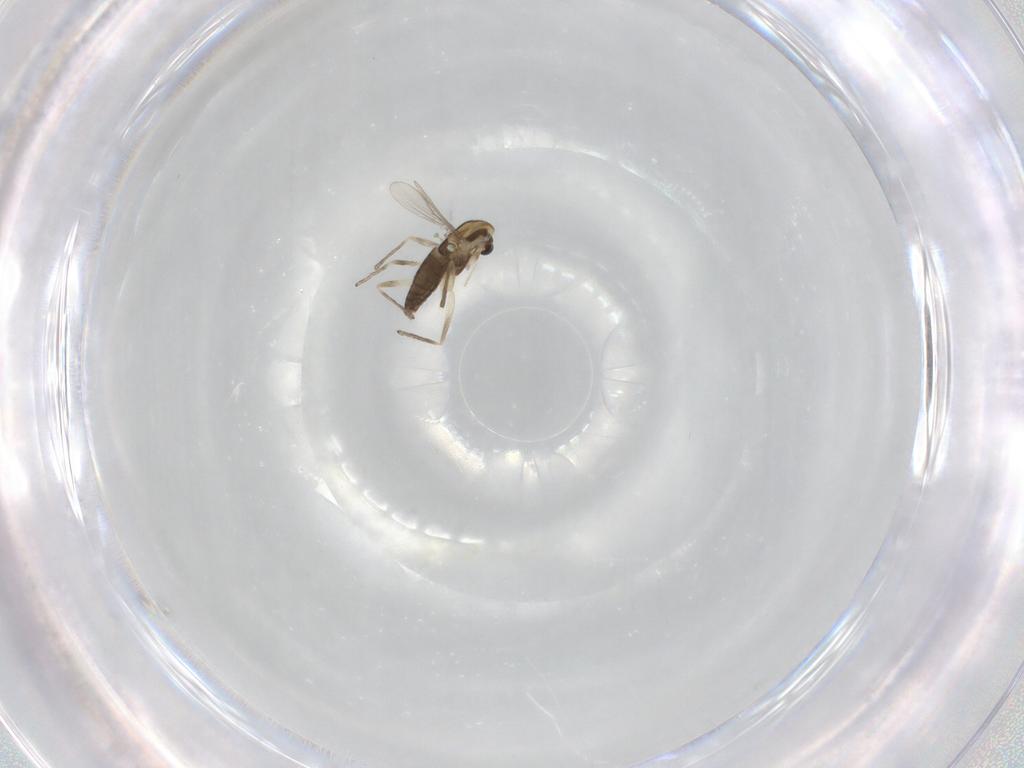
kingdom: Animalia
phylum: Arthropoda
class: Insecta
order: Diptera
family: Chironomidae
